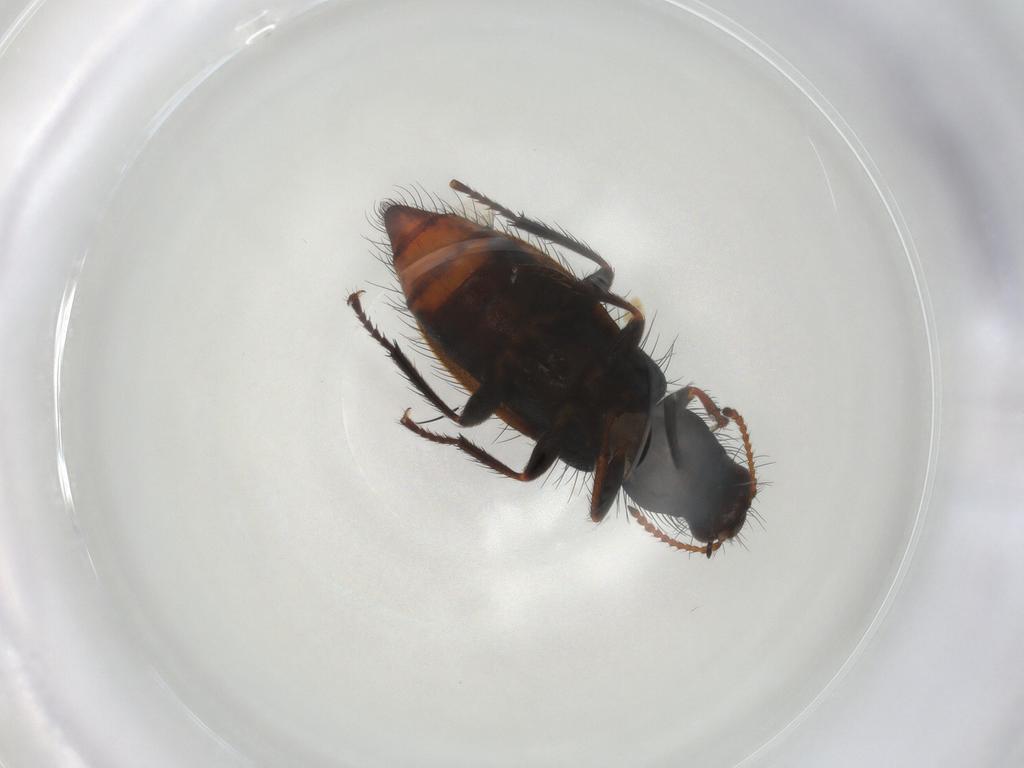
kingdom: Animalia
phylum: Arthropoda
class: Insecta
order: Coleoptera
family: Melyridae
